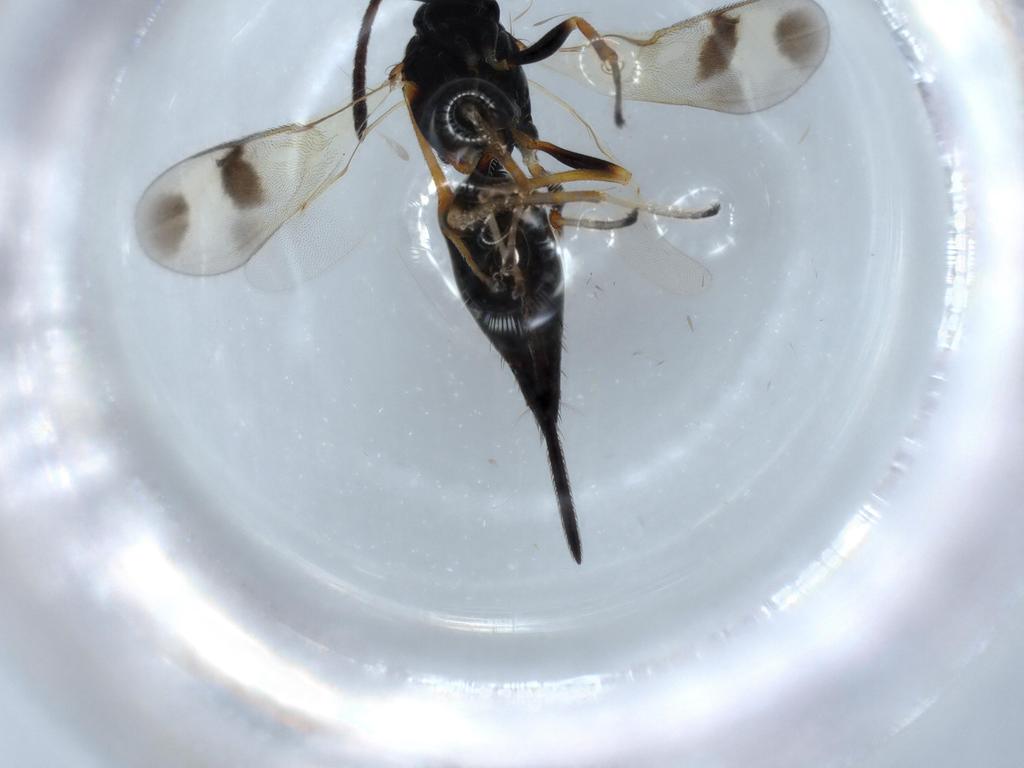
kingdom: Animalia
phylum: Arthropoda
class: Insecta
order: Hymenoptera
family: Diparidae
